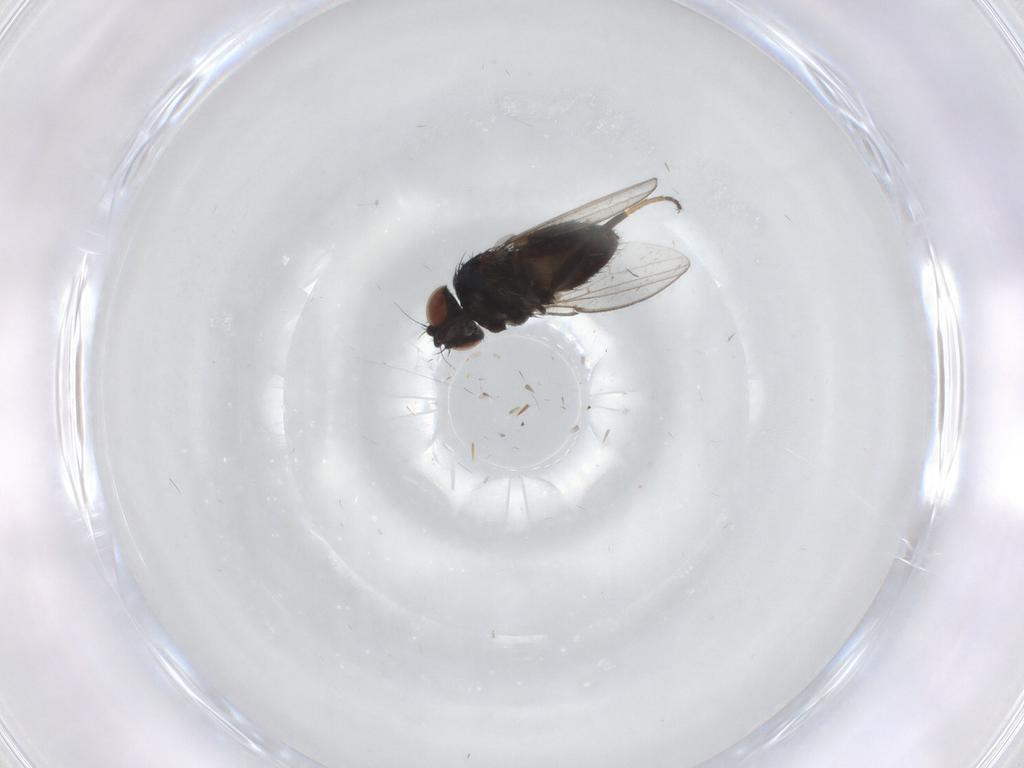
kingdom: Animalia
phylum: Arthropoda
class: Insecta
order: Diptera
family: Milichiidae
